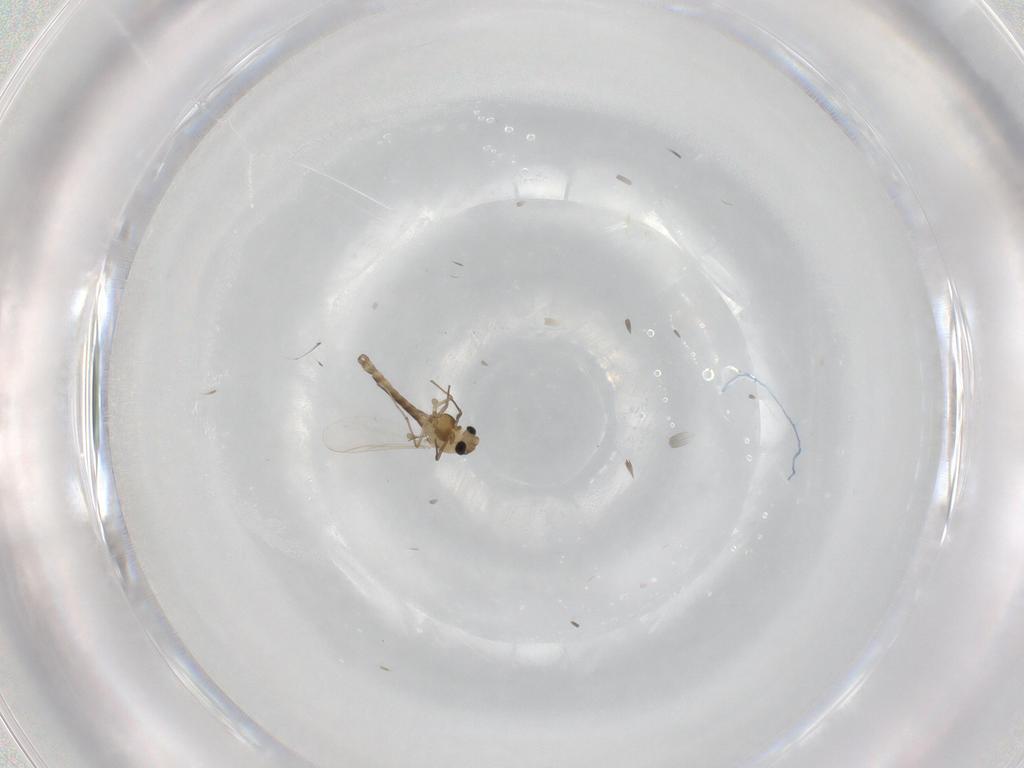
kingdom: Animalia
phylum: Arthropoda
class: Insecta
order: Diptera
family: Chironomidae
